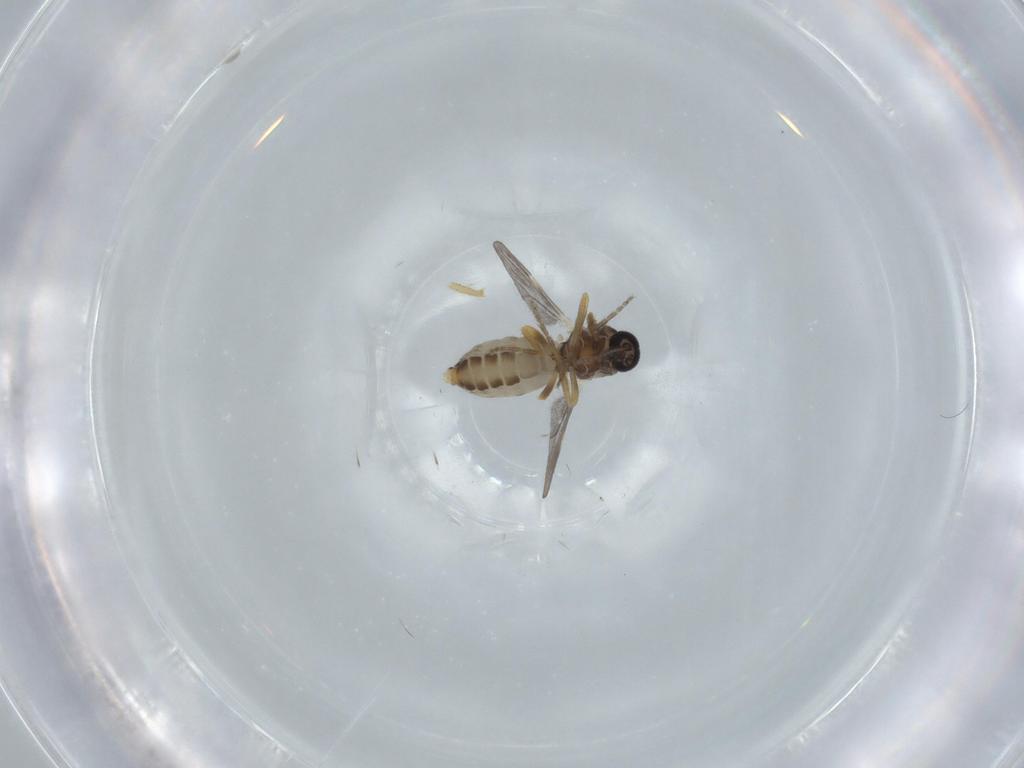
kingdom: Animalia
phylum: Arthropoda
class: Insecta
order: Diptera
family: Ceratopogonidae
